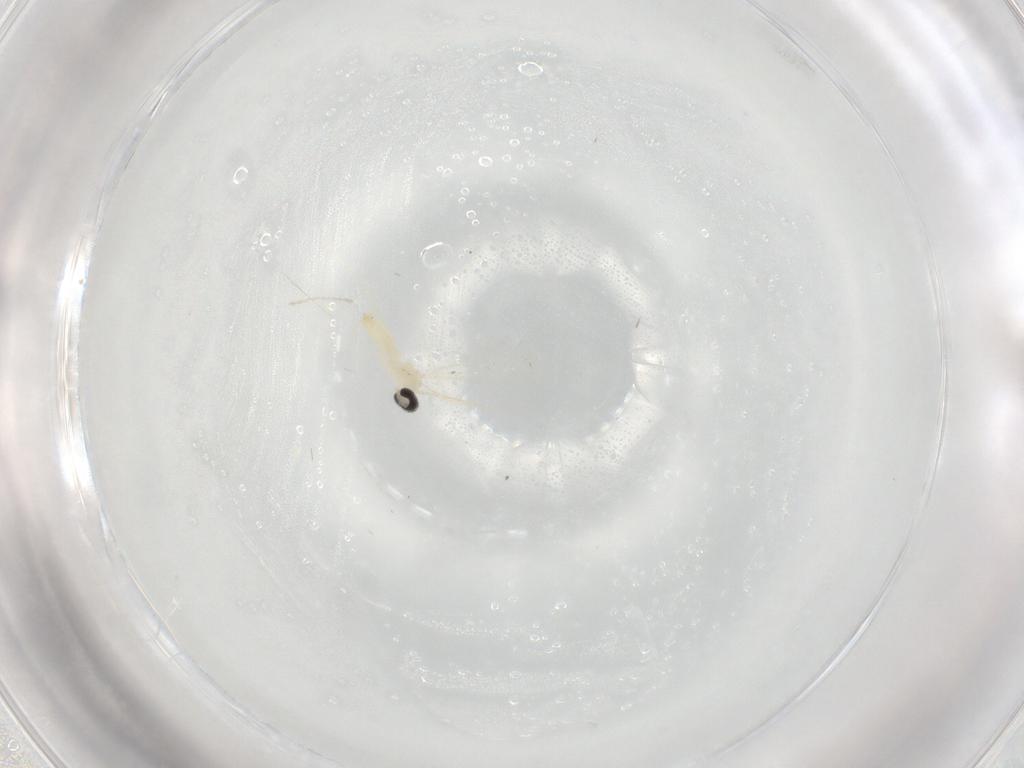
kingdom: Animalia
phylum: Arthropoda
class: Insecta
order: Diptera
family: Cecidomyiidae
